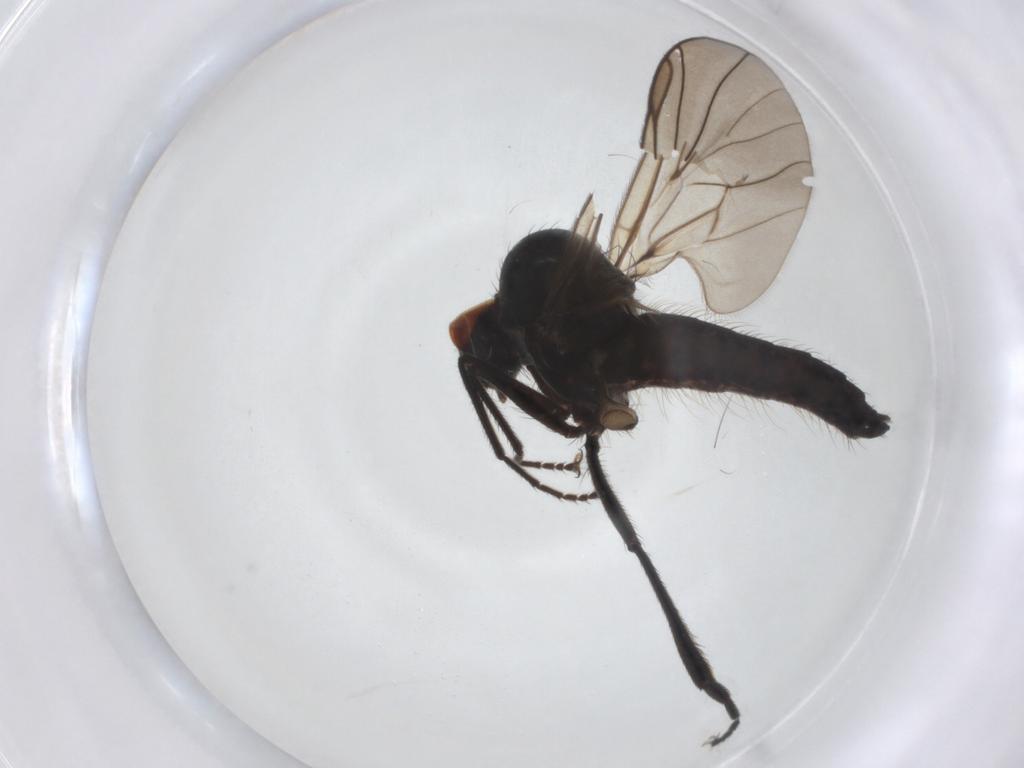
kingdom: Animalia
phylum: Arthropoda
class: Insecta
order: Diptera
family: Hybotidae
